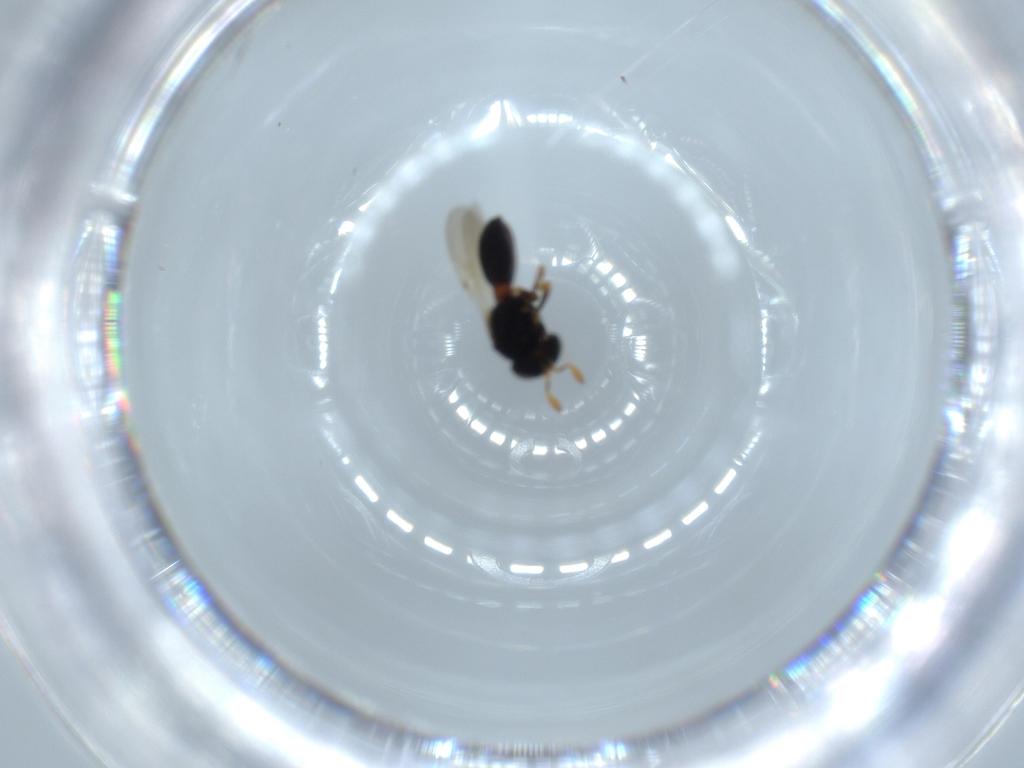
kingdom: Animalia
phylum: Arthropoda
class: Insecta
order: Hymenoptera
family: Scelionidae
